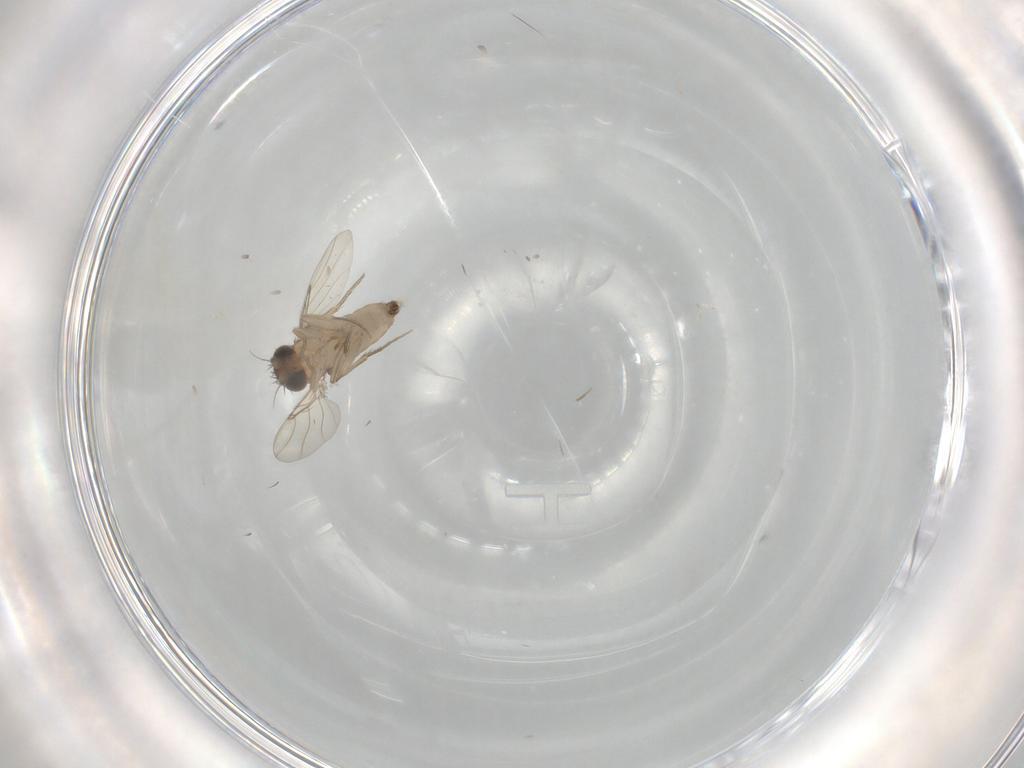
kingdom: Animalia
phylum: Arthropoda
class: Insecta
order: Diptera
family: Phoridae
